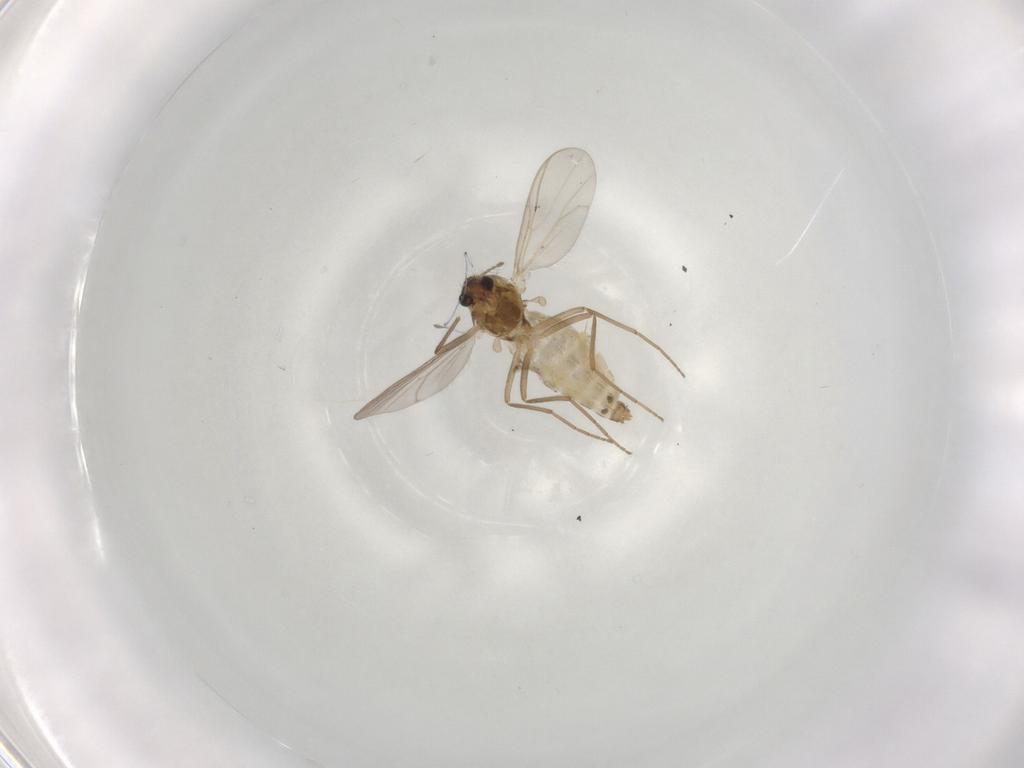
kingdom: Animalia
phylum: Arthropoda
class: Insecta
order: Diptera
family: Chironomidae
